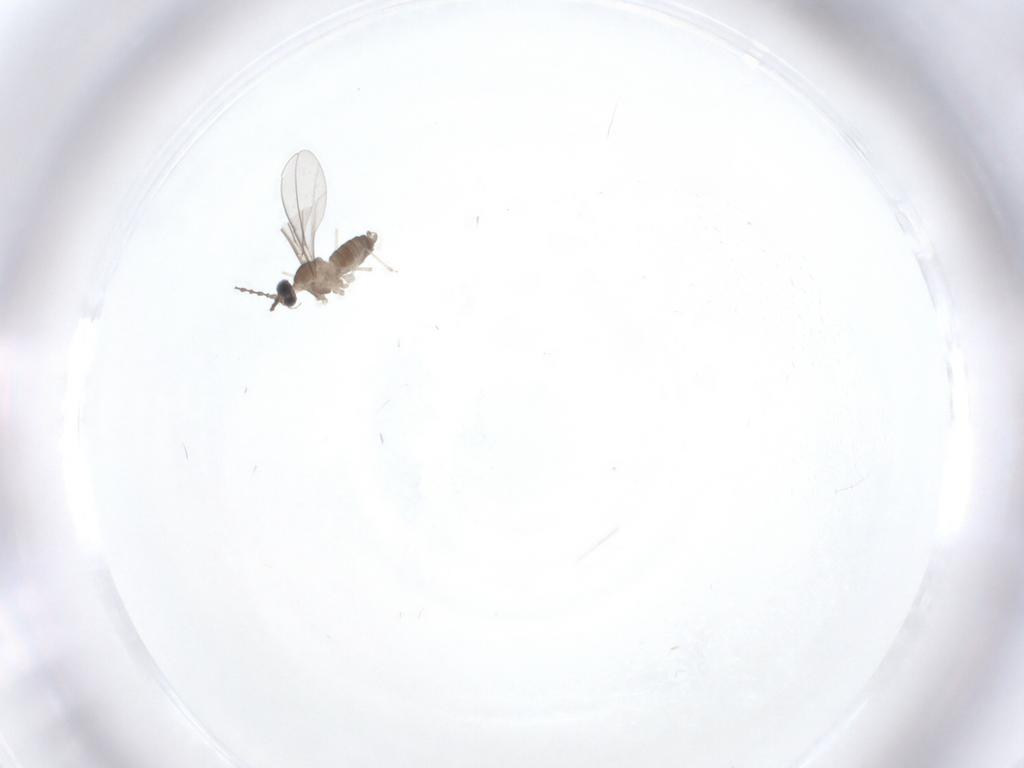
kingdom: Animalia
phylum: Arthropoda
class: Insecta
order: Diptera
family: Cecidomyiidae
